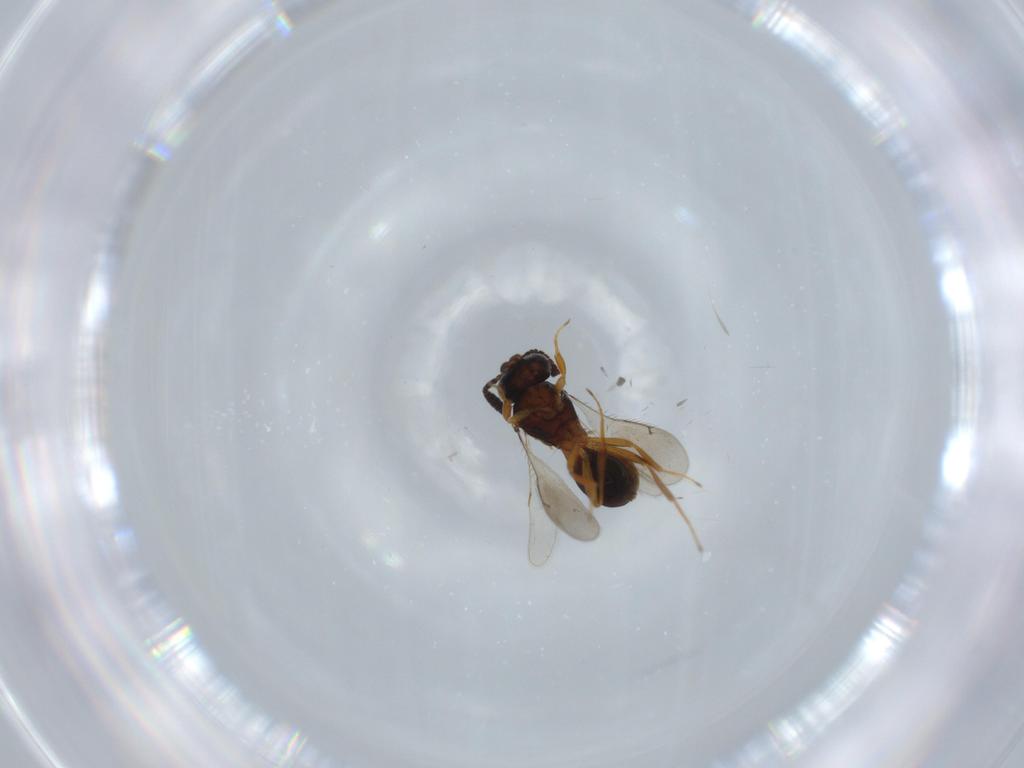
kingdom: Animalia
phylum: Arthropoda
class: Insecta
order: Hymenoptera
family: Scelionidae
